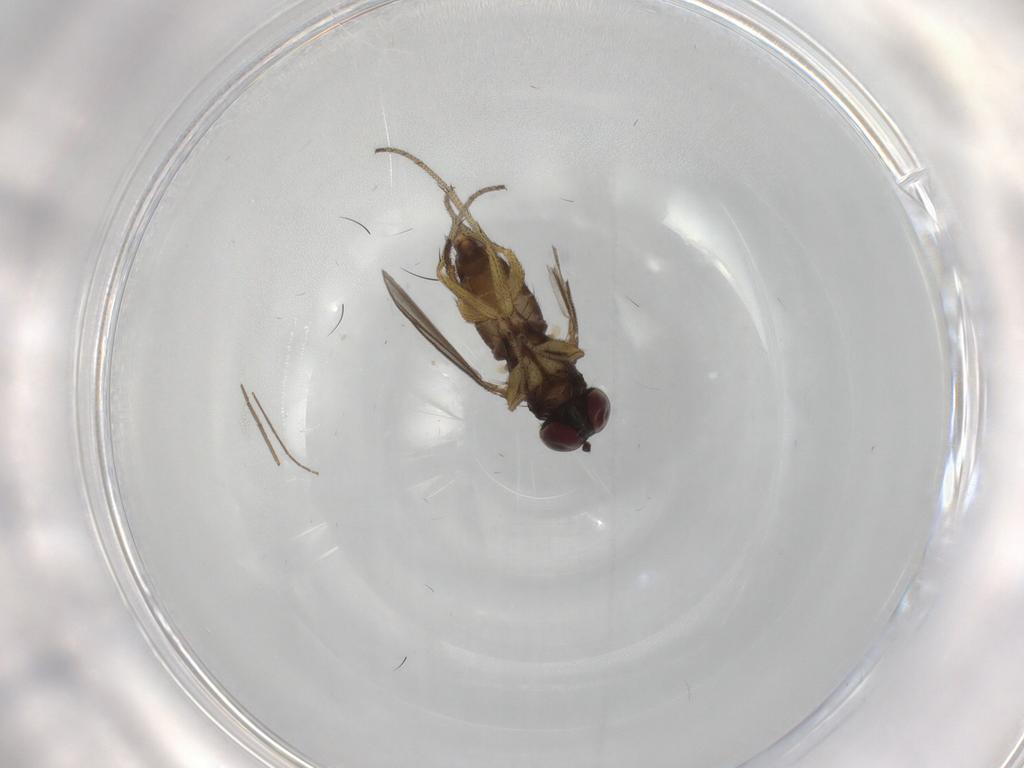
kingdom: Animalia
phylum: Arthropoda
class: Insecta
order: Diptera
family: Chironomidae
